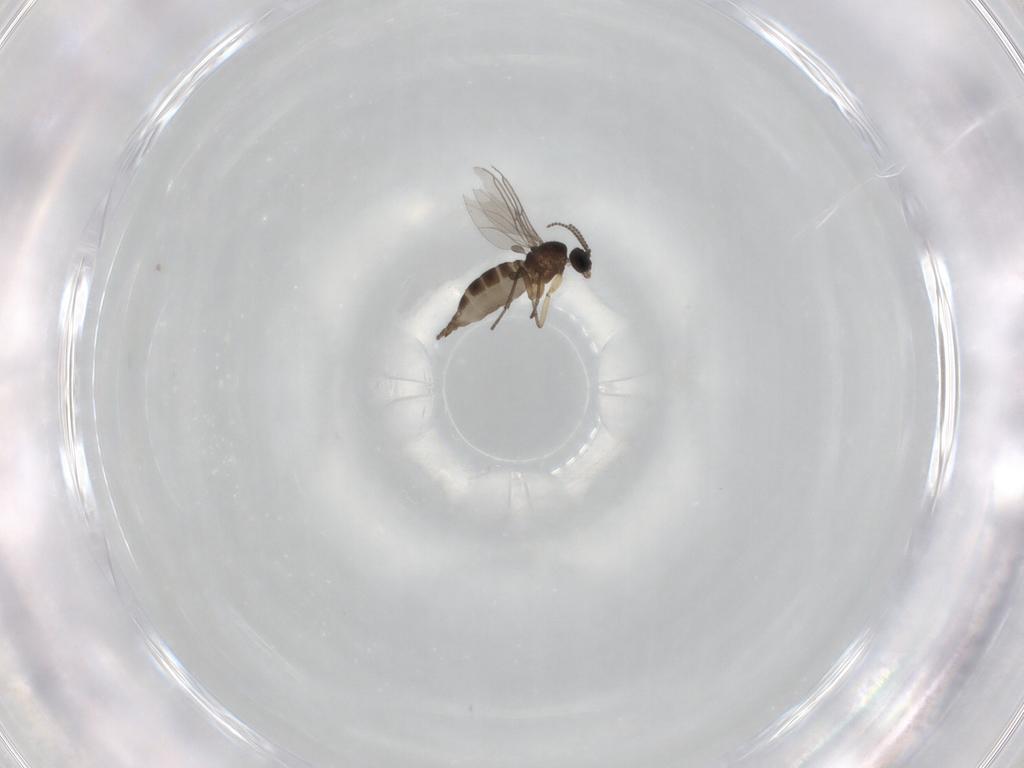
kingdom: Animalia
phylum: Arthropoda
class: Insecta
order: Diptera
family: Sciaridae
